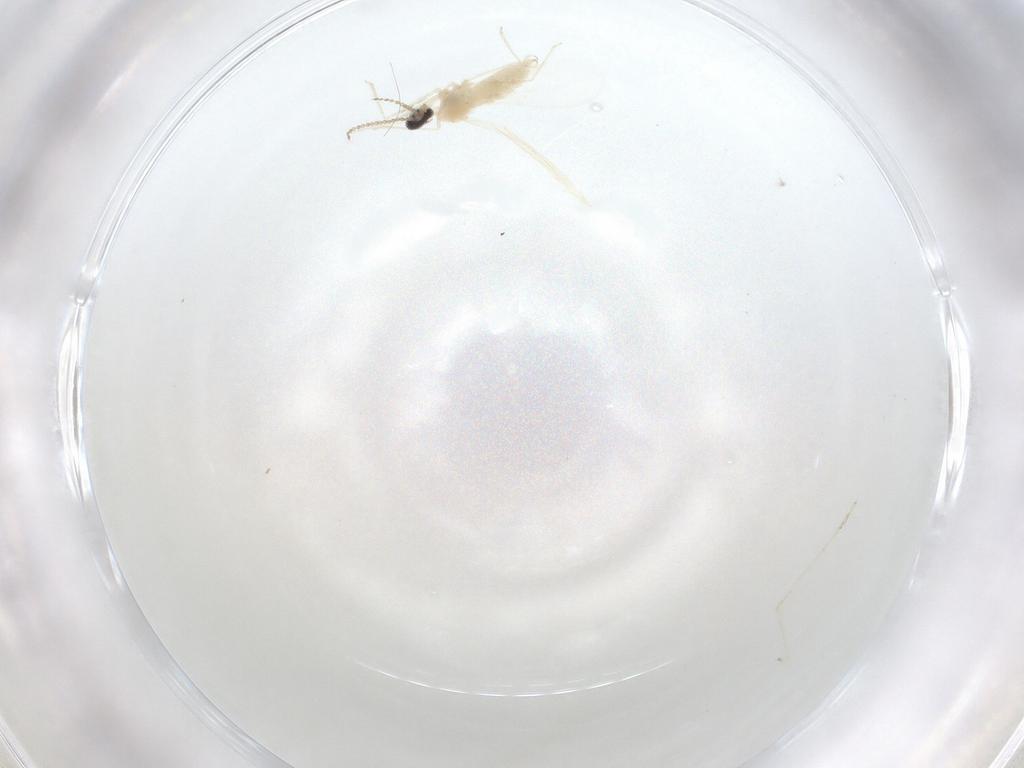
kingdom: Animalia
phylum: Arthropoda
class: Insecta
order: Diptera
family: Cecidomyiidae
